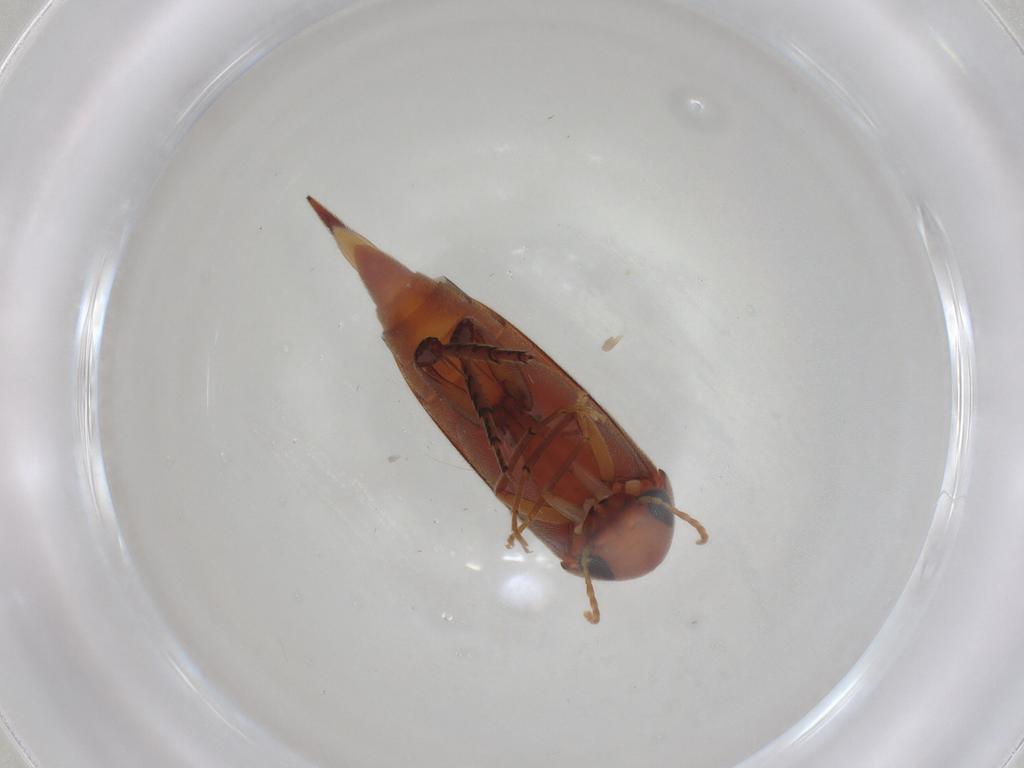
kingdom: Animalia
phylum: Arthropoda
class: Insecta
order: Coleoptera
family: Mordellidae
